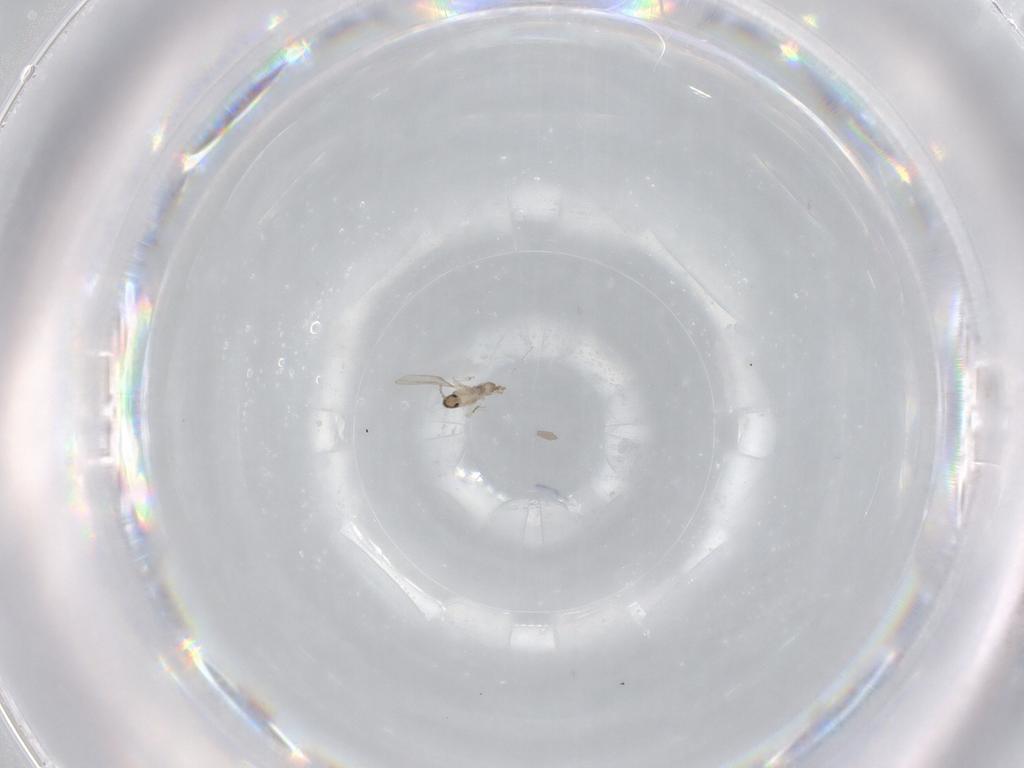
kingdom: Animalia
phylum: Arthropoda
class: Insecta
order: Diptera
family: Cecidomyiidae
